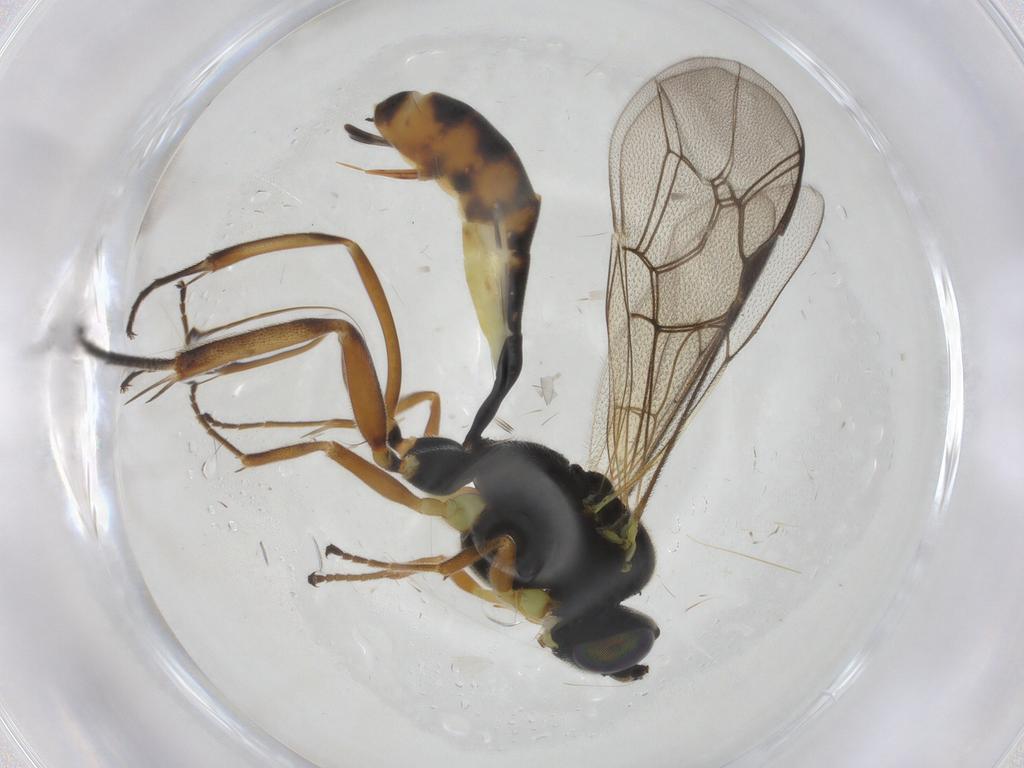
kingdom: Animalia
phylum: Arthropoda
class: Insecta
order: Hymenoptera
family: Ichneumonidae
